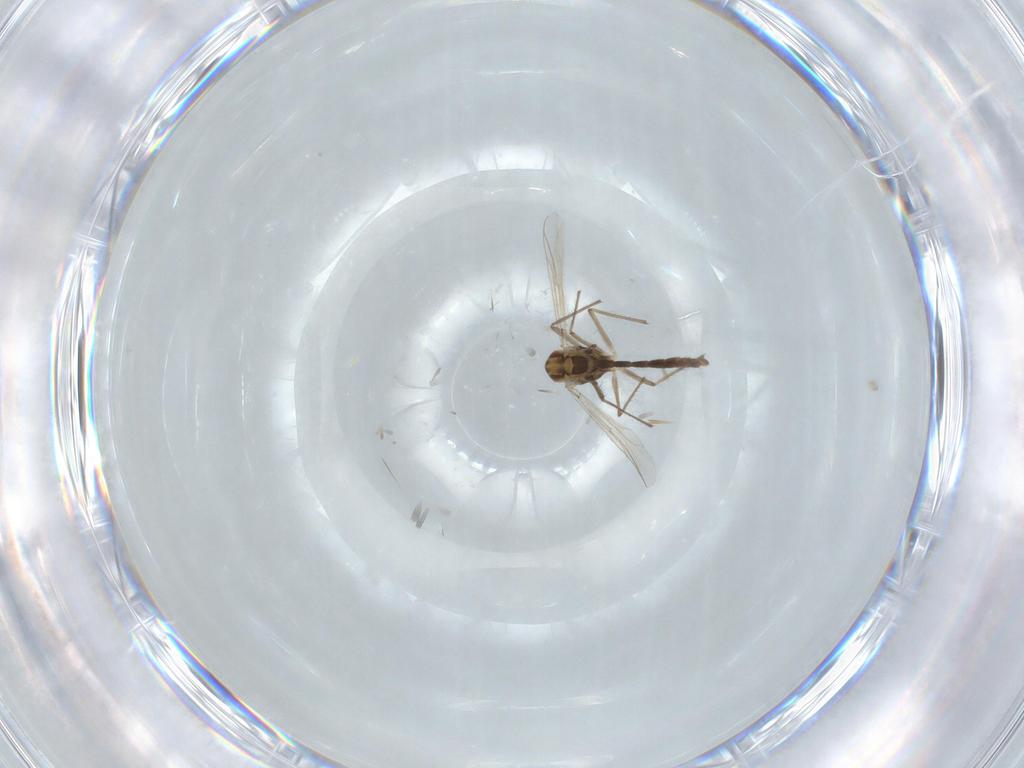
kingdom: Animalia
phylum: Arthropoda
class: Insecta
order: Diptera
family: Chironomidae
